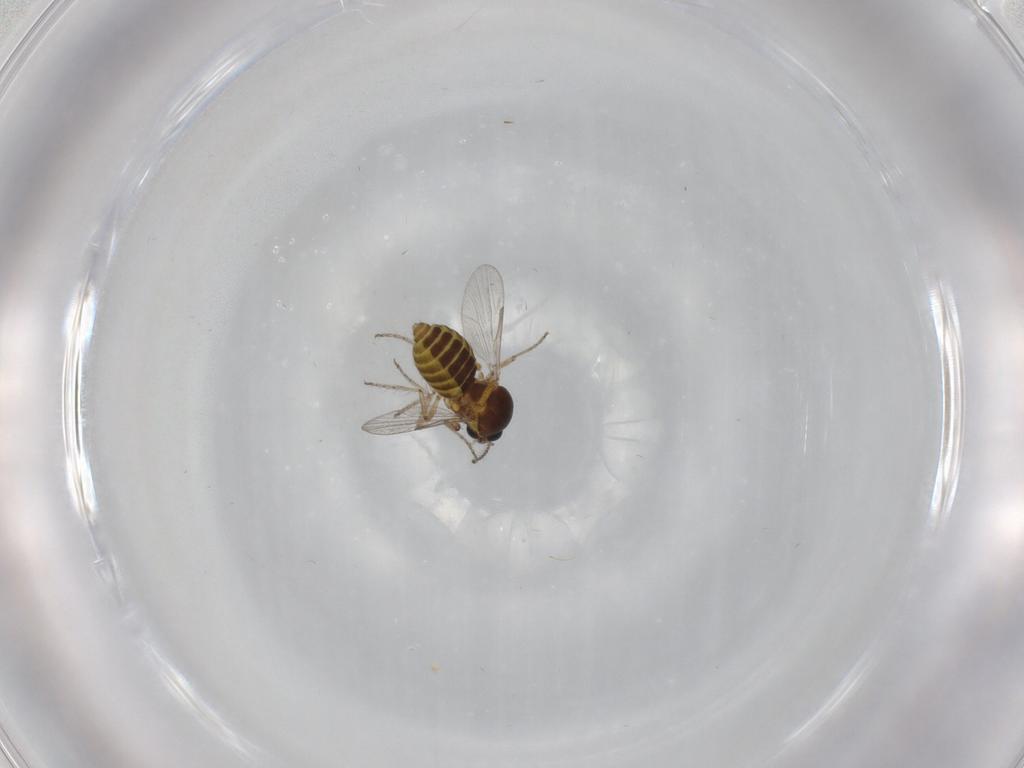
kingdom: Animalia
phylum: Arthropoda
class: Insecta
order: Diptera
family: Ceratopogonidae
